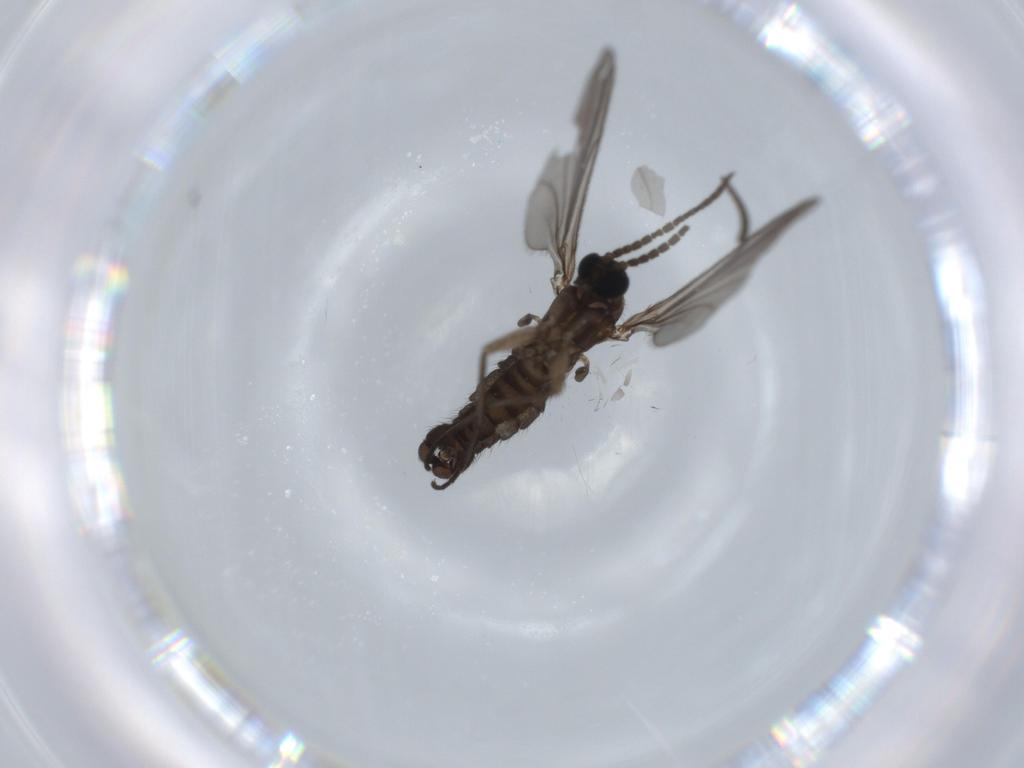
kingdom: Animalia
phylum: Arthropoda
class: Insecta
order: Diptera
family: Sciaridae
